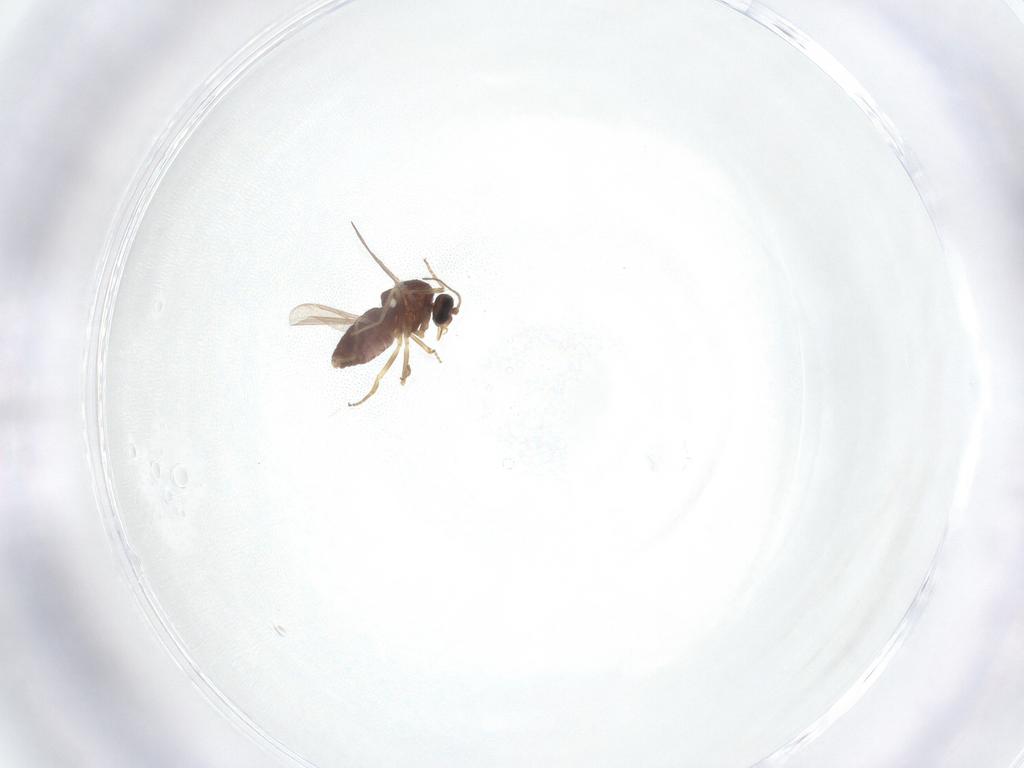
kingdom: Animalia
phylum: Arthropoda
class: Insecta
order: Diptera
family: Ceratopogonidae
